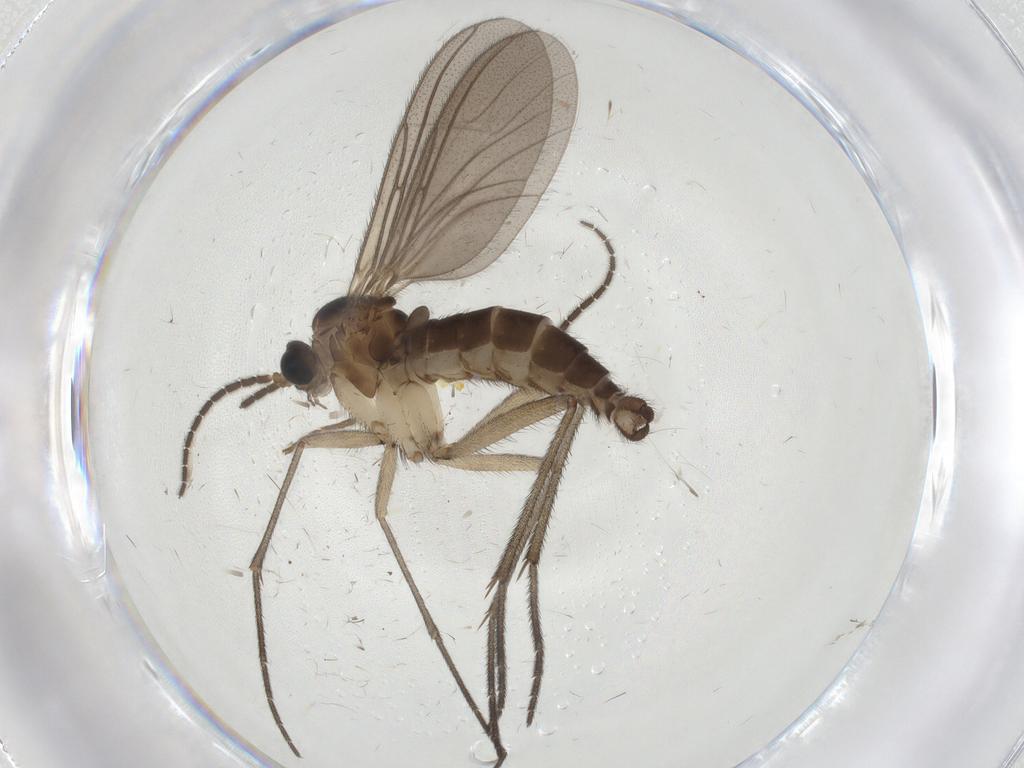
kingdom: Animalia
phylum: Arthropoda
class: Insecta
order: Diptera
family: Sciaridae
